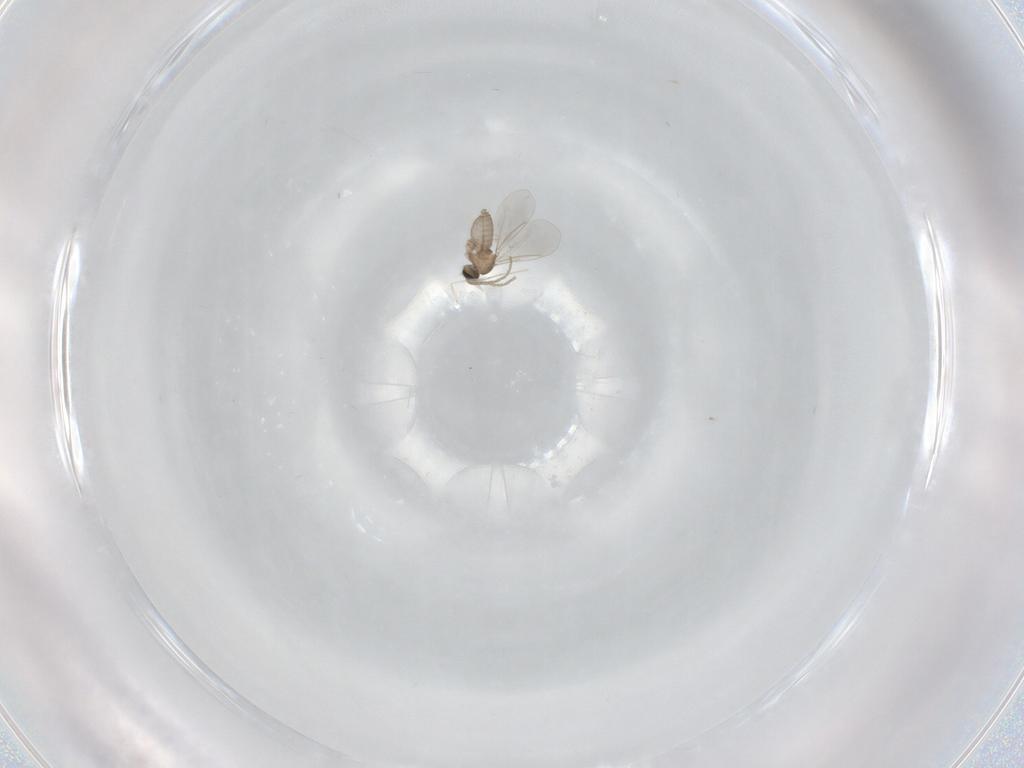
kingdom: Animalia
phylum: Arthropoda
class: Insecta
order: Diptera
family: Cecidomyiidae
